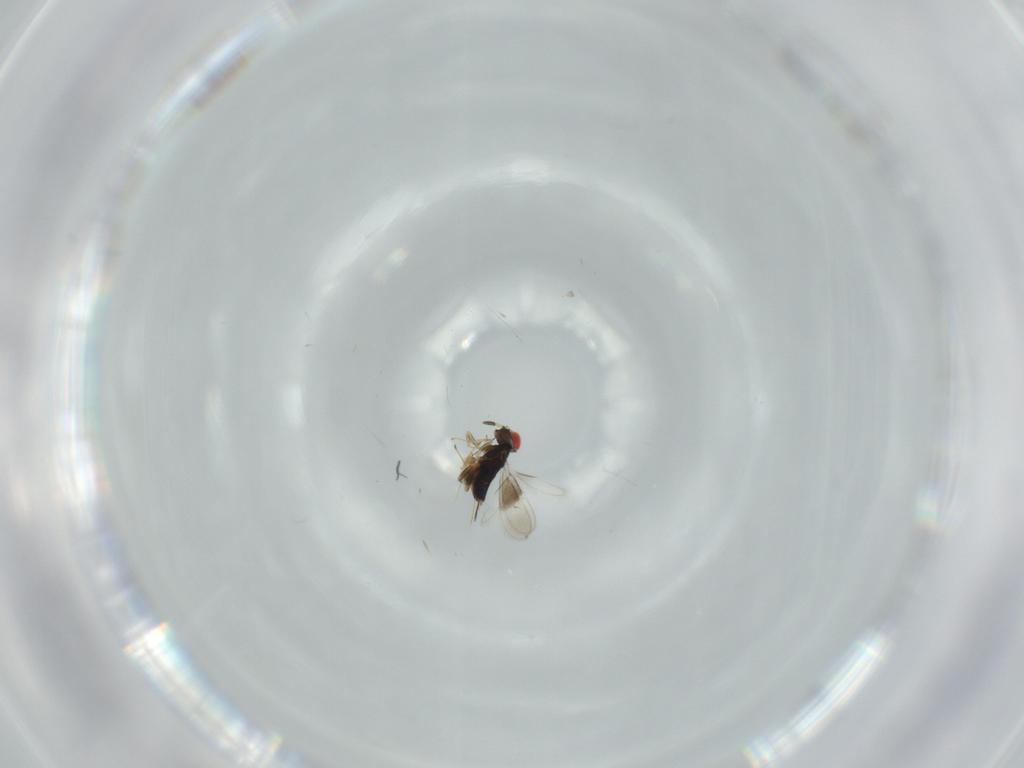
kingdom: Animalia
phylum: Arthropoda
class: Insecta
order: Hymenoptera
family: Azotidae
